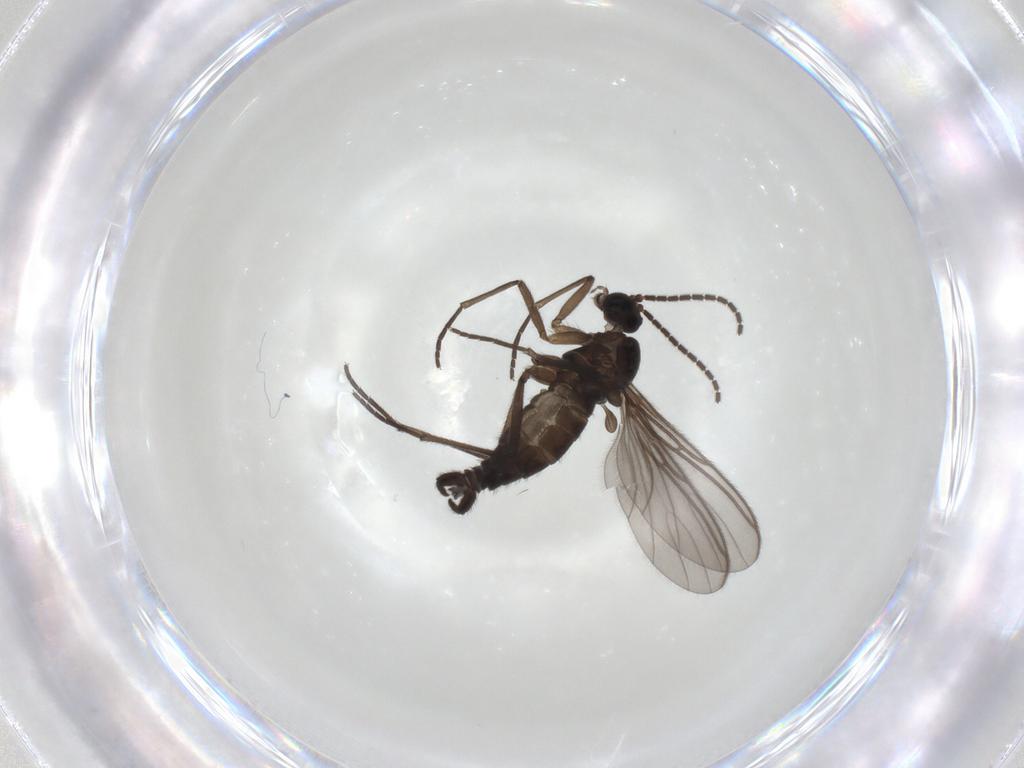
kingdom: Animalia
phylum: Arthropoda
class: Insecta
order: Diptera
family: Sciaridae
